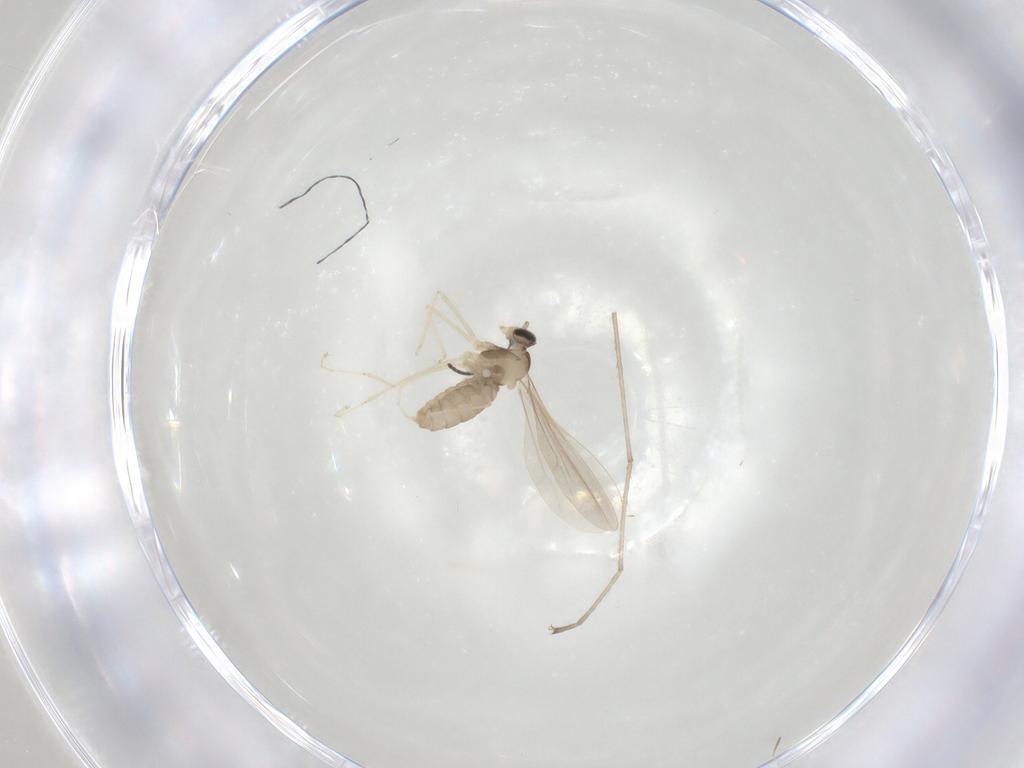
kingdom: Animalia
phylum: Arthropoda
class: Insecta
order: Diptera
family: Cecidomyiidae
